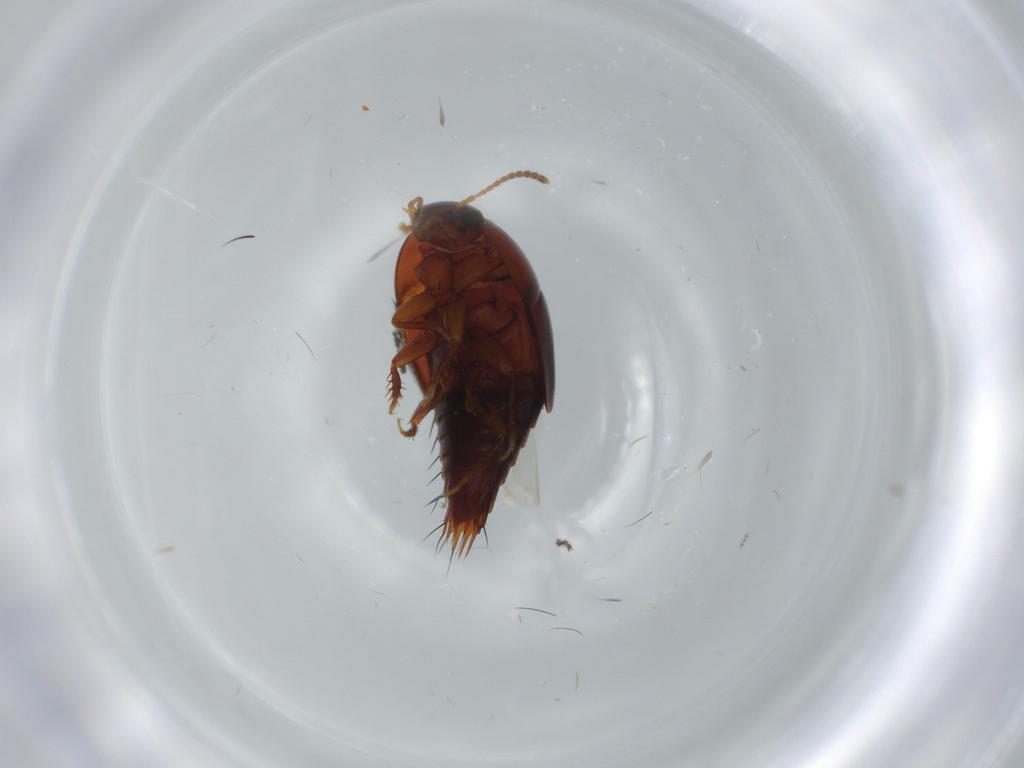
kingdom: Animalia
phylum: Arthropoda
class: Insecta
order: Coleoptera
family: Staphylinidae
